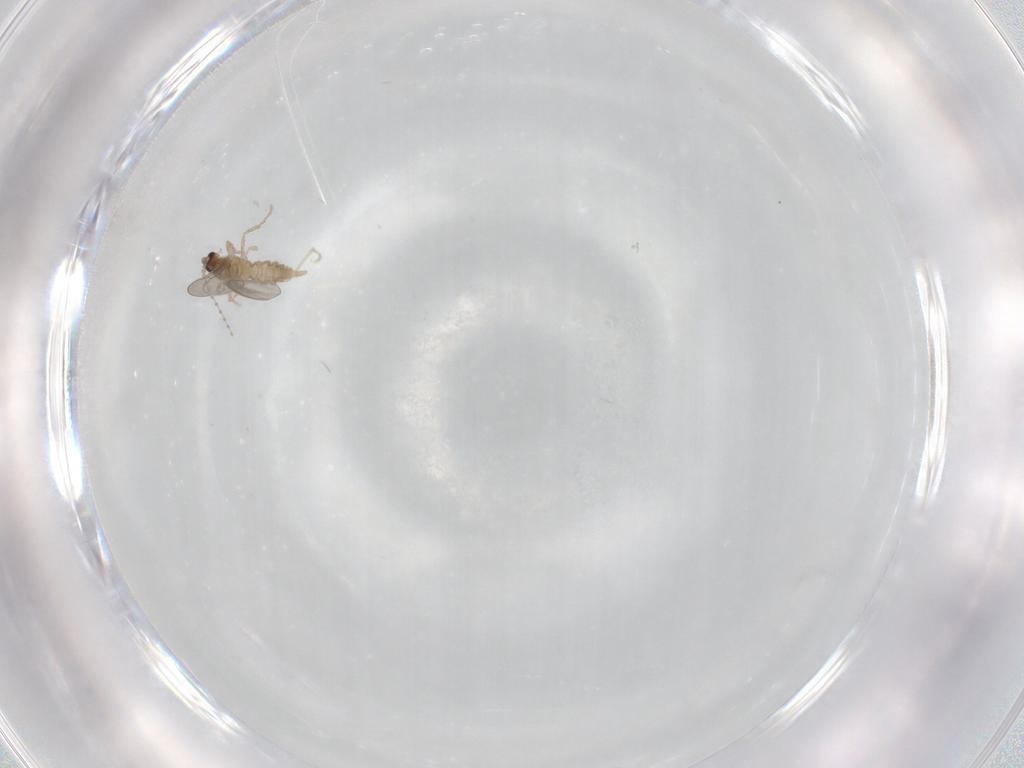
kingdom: Animalia
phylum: Arthropoda
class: Insecta
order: Diptera
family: Cecidomyiidae
